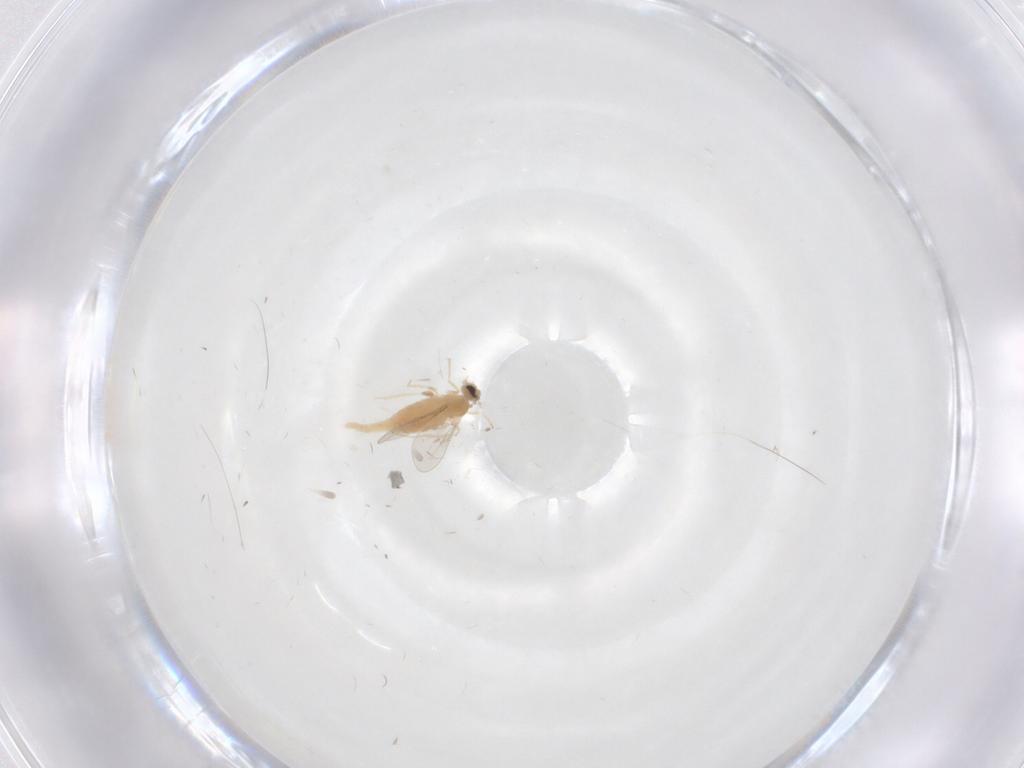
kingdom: Animalia
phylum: Arthropoda
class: Insecta
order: Diptera
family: Cecidomyiidae
